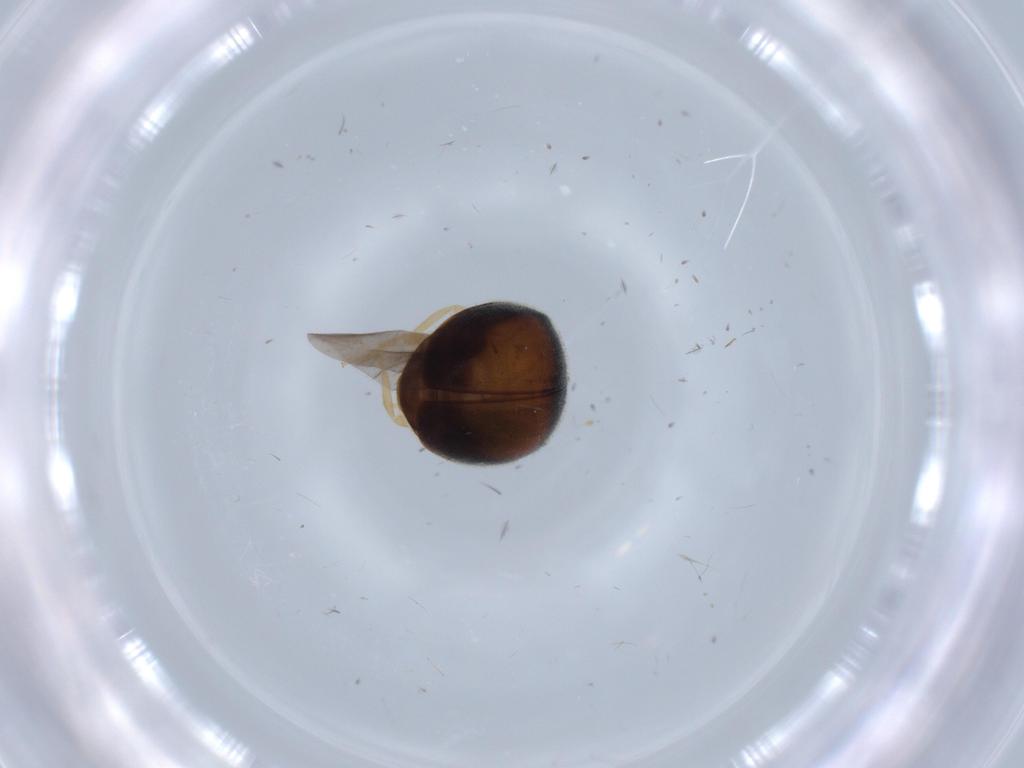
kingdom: Animalia
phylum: Arthropoda
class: Insecta
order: Coleoptera
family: Coccinellidae
